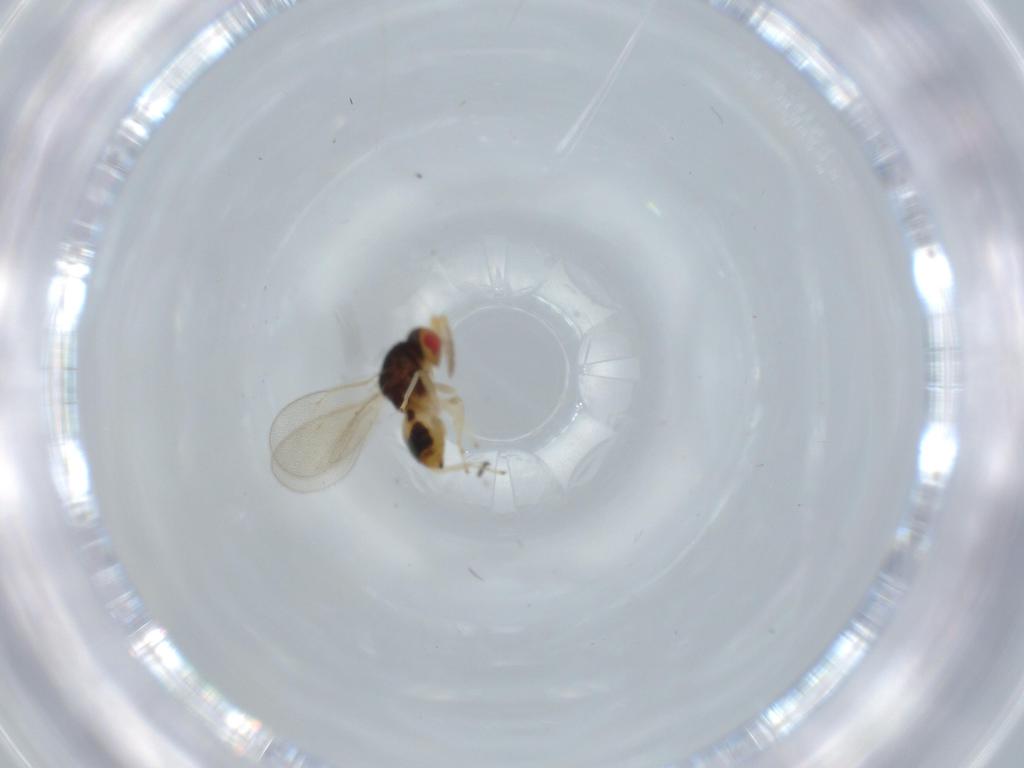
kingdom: Animalia
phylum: Arthropoda
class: Insecta
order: Diptera
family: Phoridae
